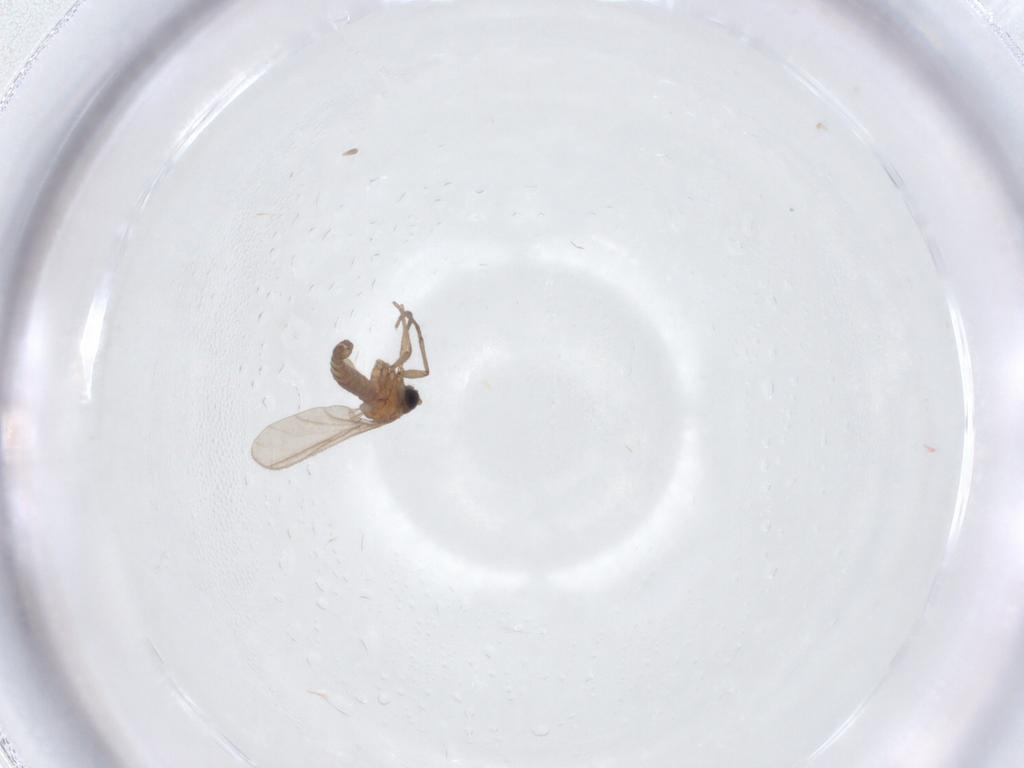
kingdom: Animalia
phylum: Arthropoda
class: Insecta
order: Diptera
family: Sciaridae
